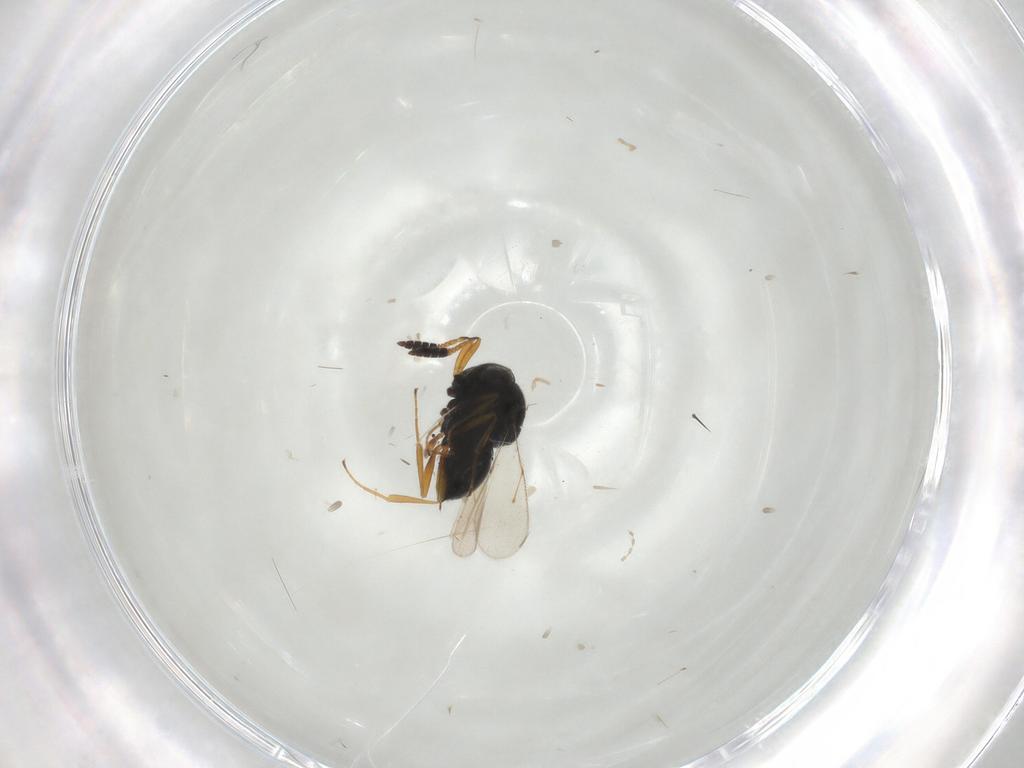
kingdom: Animalia
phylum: Arthropoda
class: Insecta
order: Hymenoptera
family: Scelionidae
